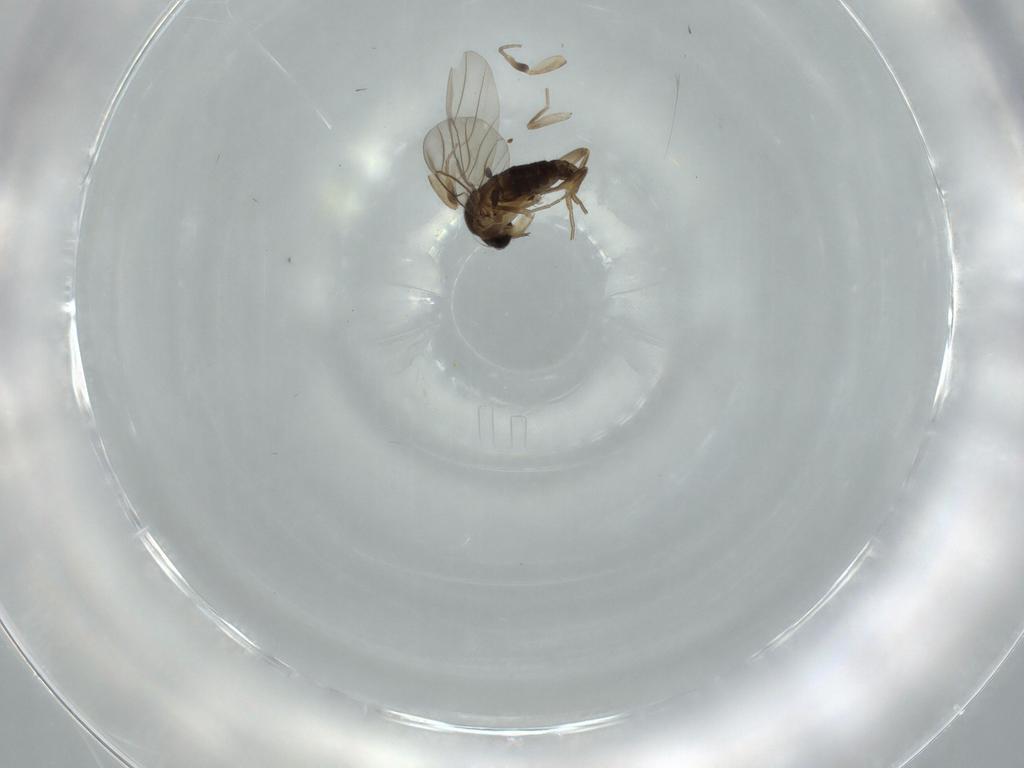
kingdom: Animalia
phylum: Arthropoda
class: Insecta
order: Diptera
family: Phoridae
